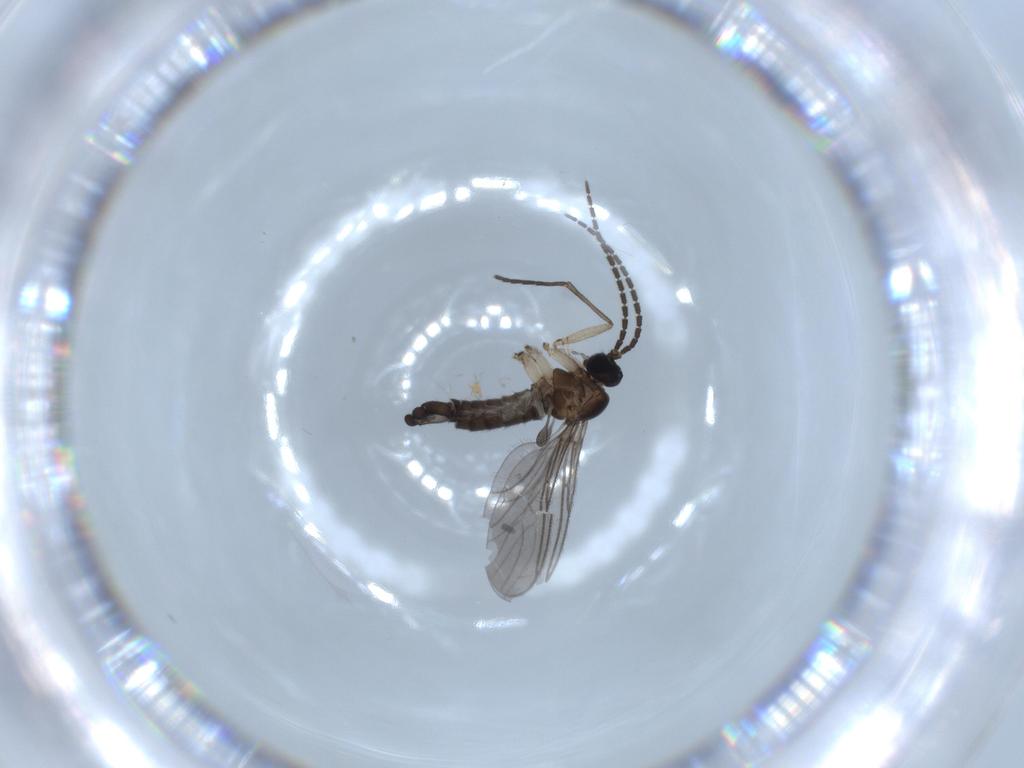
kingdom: Animalia
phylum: Arthropoda
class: Insecta
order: Diptera
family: Sciaridae
